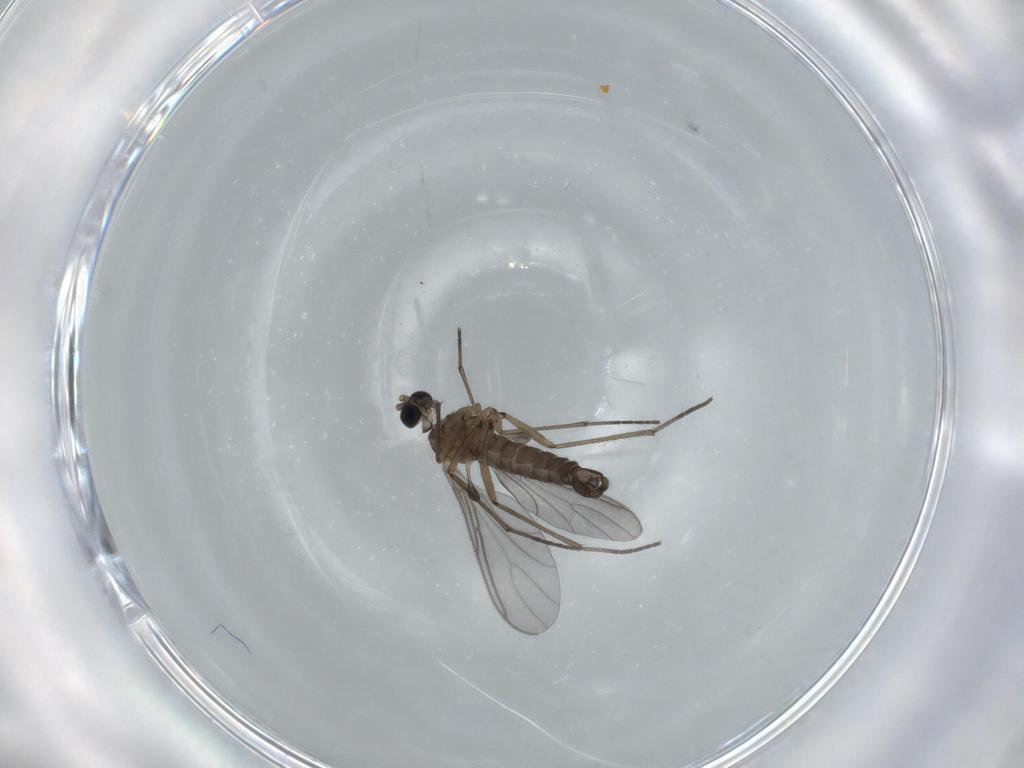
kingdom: Animalia
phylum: Arthropoda
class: Insecta
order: Diptera
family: Sciaridae
